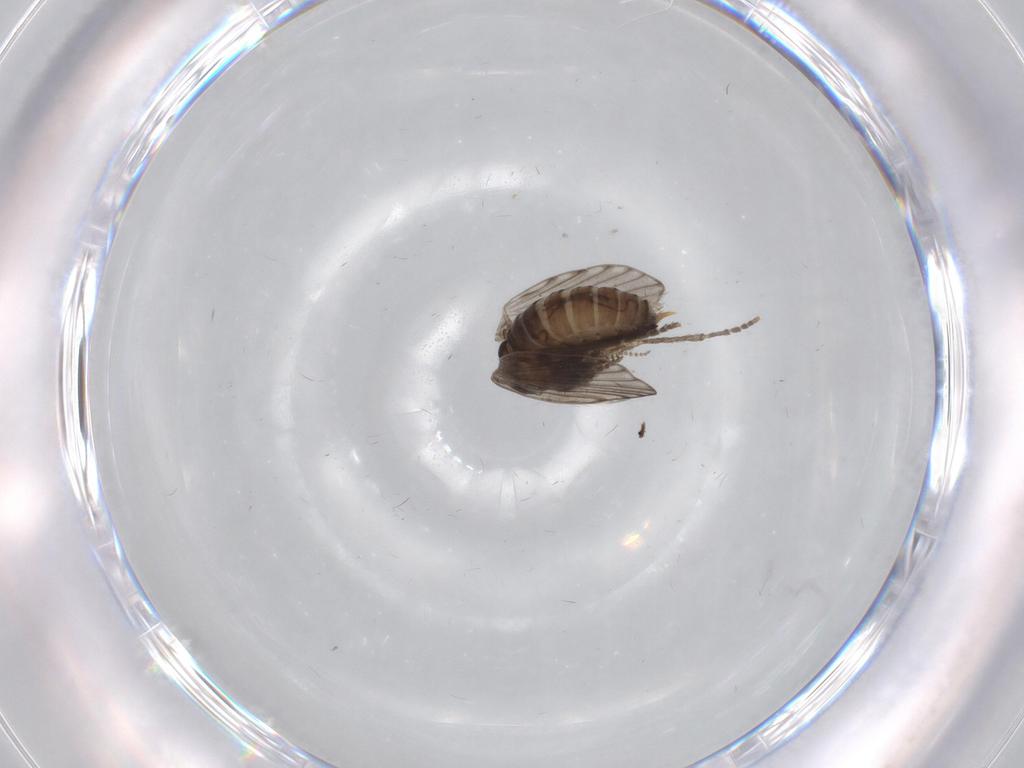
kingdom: Animalia
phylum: Arthropoda
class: Insecta
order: Diptera
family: Psychodidae
